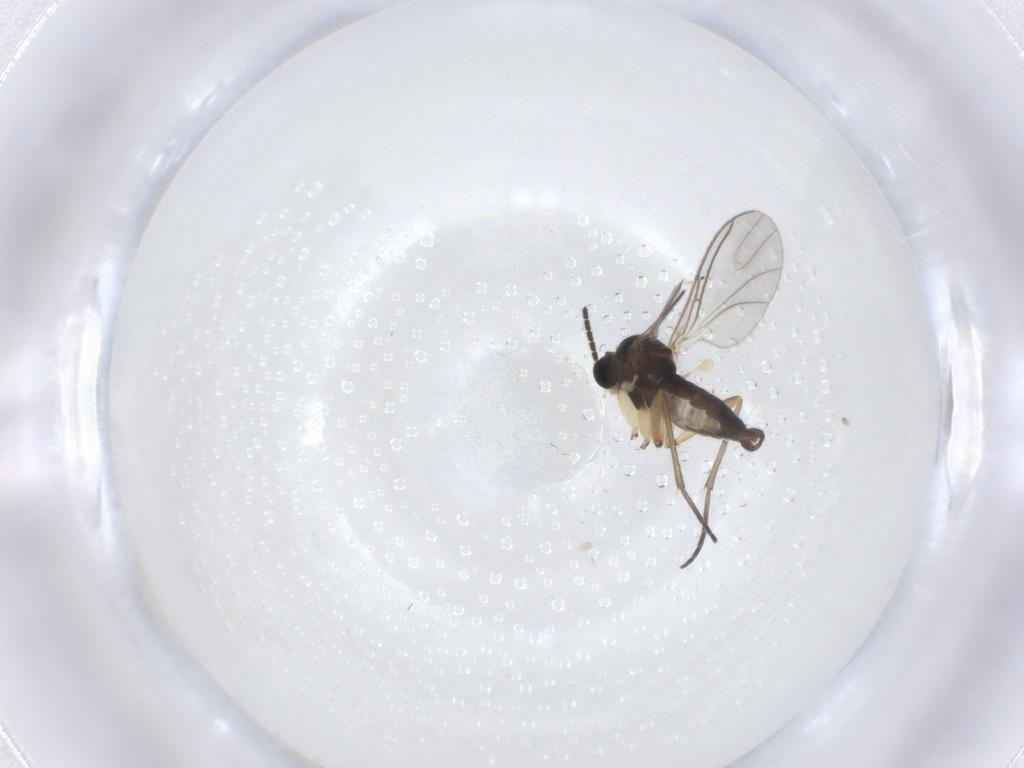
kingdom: Animalia
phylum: Arthropoda
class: Insecta
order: Diptera
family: Sciaridae
